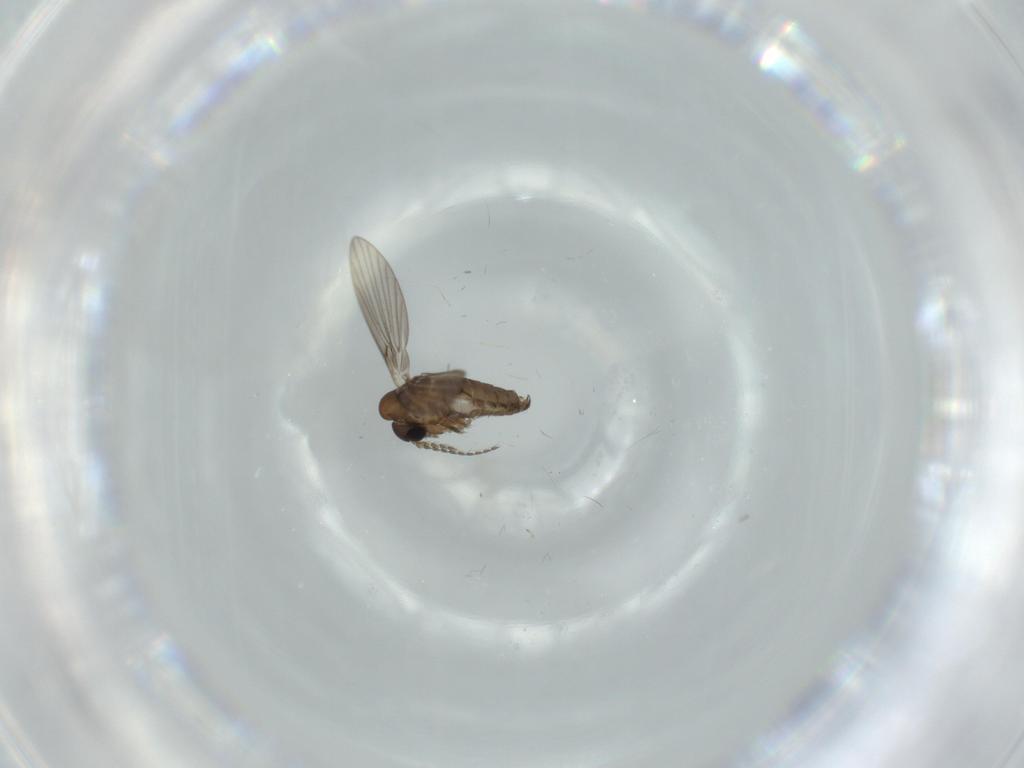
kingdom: Animalia
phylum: Arthropoda
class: Insecta
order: Diptera
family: Psychodidae
